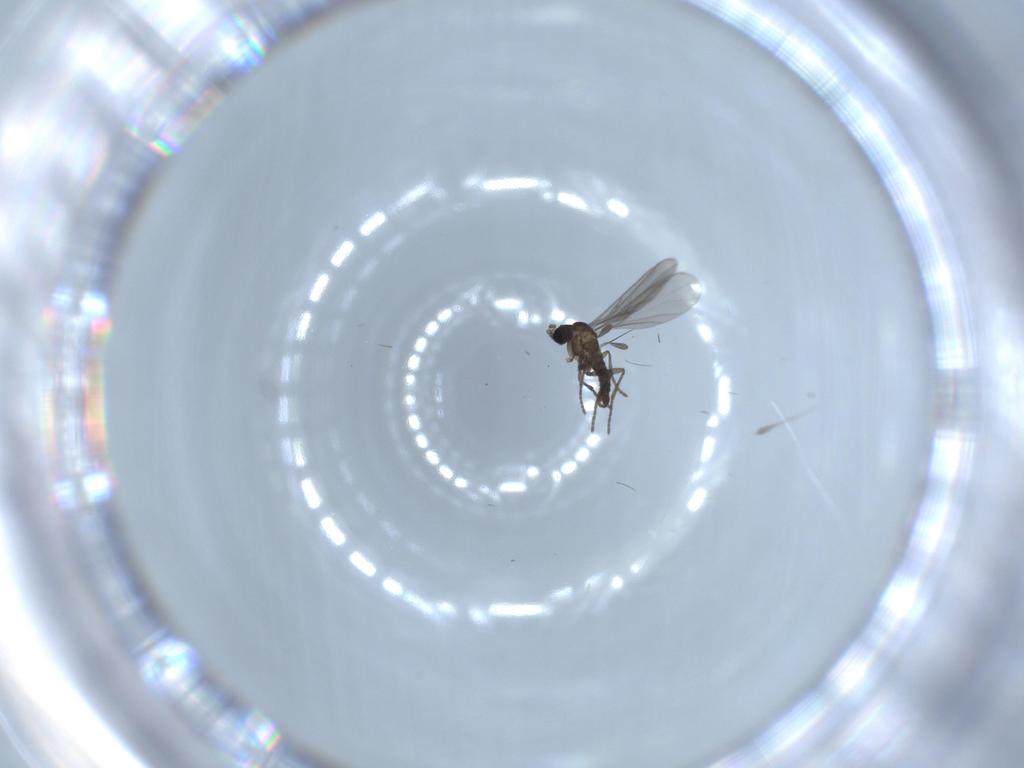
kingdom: Animalia
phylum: Arthropoda
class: Insecta
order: Diptera
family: Sciaridae
